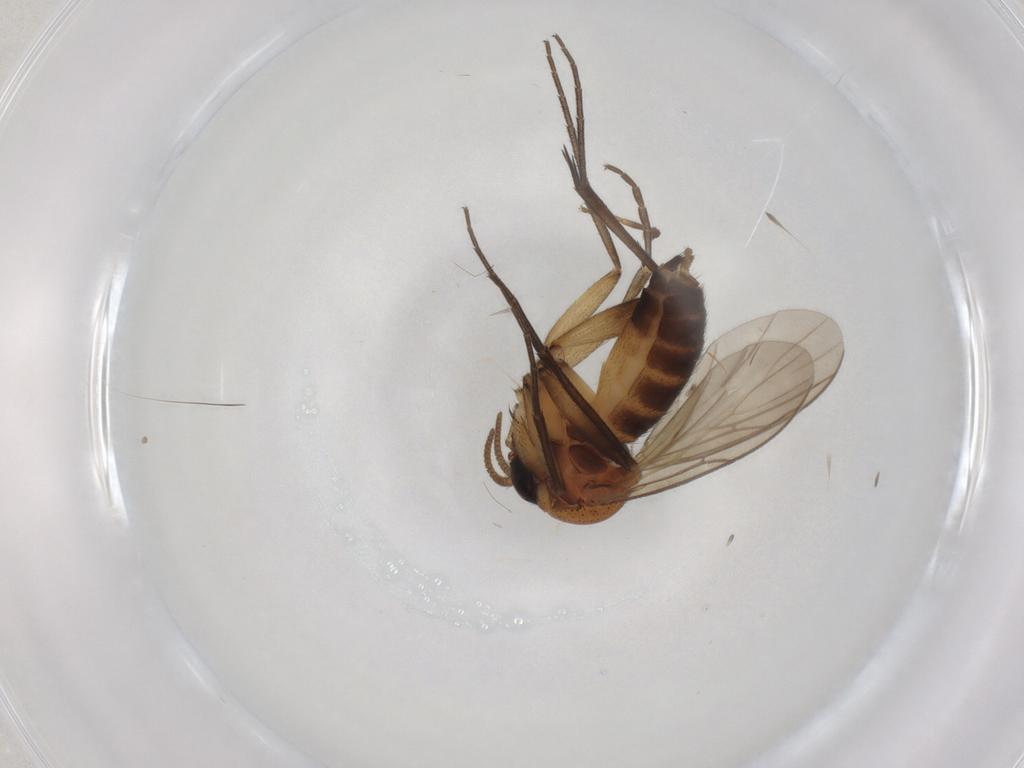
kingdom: Animalia
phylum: Arthropoda
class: Insecta
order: Diptera
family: Mycetophilidae
